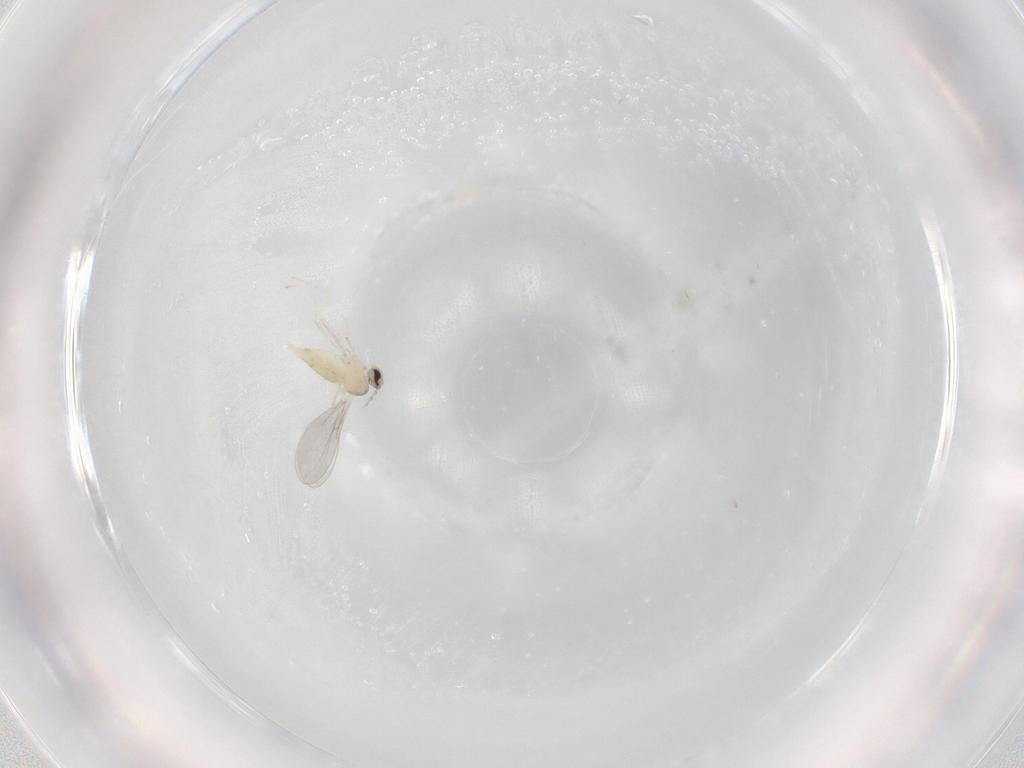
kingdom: Animalia
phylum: Arthropoda
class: Insecta
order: Diptera
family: Cecidomyiidae
